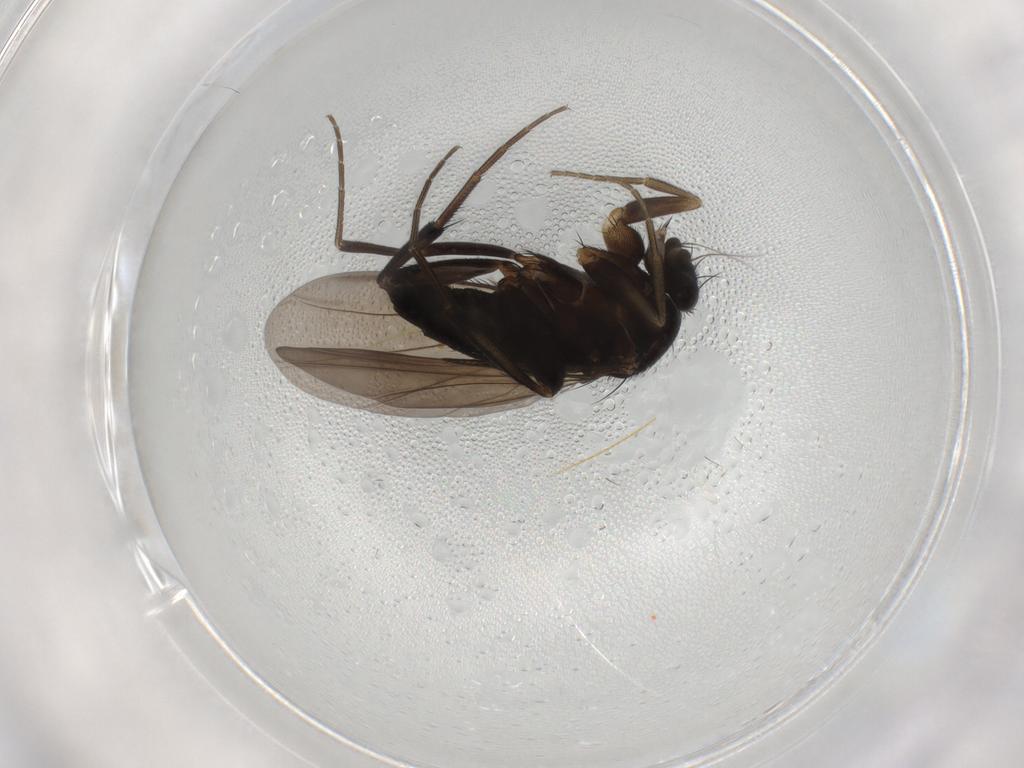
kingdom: Animalia
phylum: Arthropoda
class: Insecta
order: Diptera
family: Phoridae
